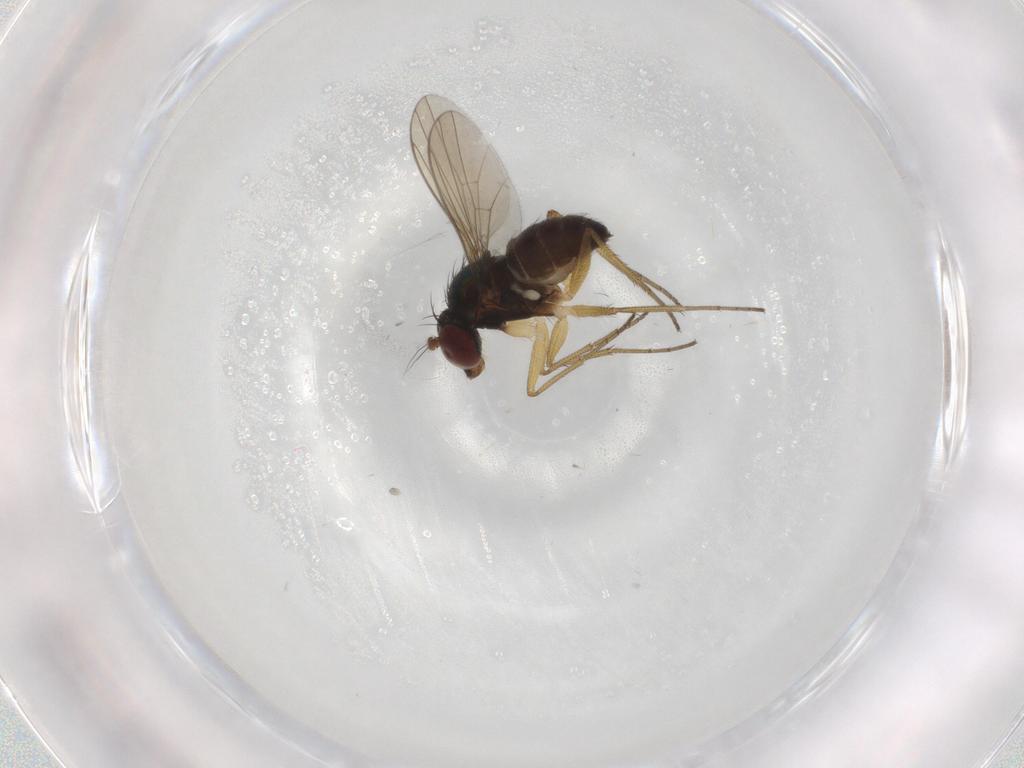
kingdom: Animalia
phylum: Arthropoda
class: Insecta
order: Diptera
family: Dolichopodidae
